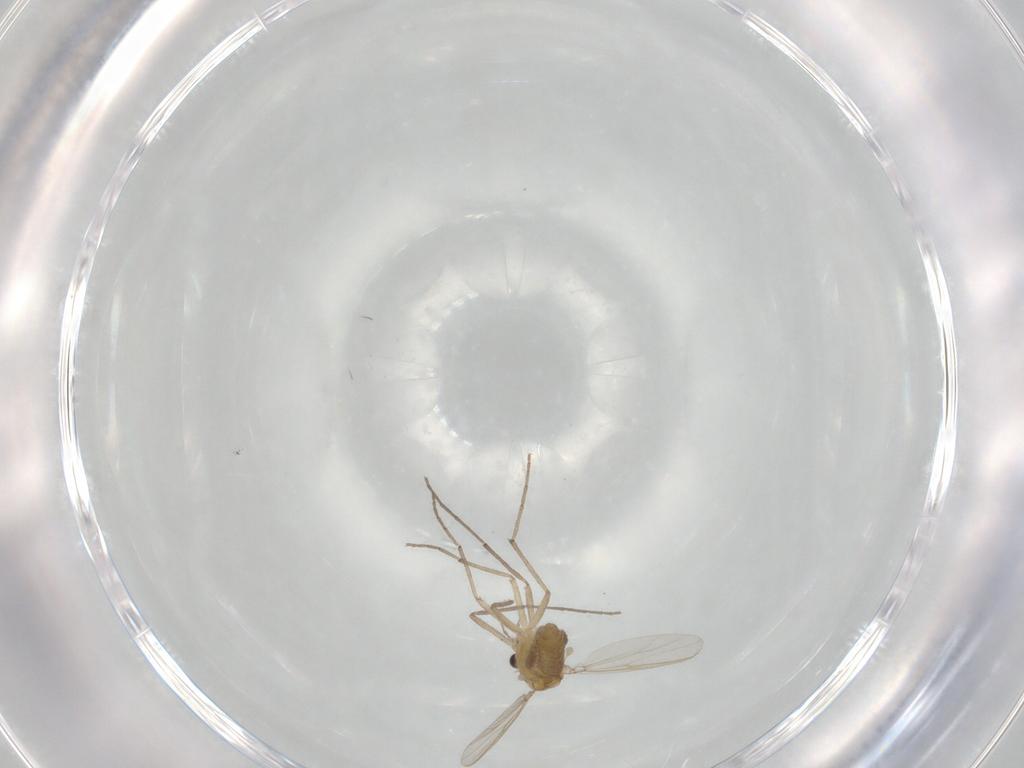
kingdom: Animalia
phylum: Arthropoda
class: Insecta
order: Diptera
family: Chironomidae
